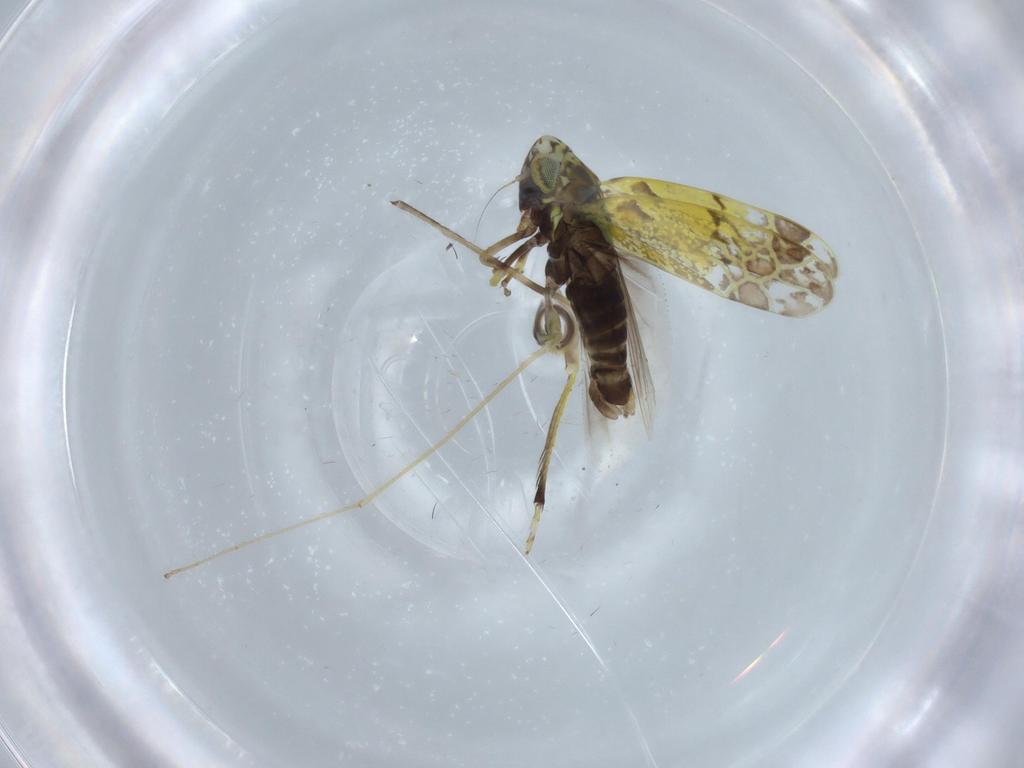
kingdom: Animalia
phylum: Arthropoda
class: Insecta
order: Hemiptera
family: Cicadellidae
